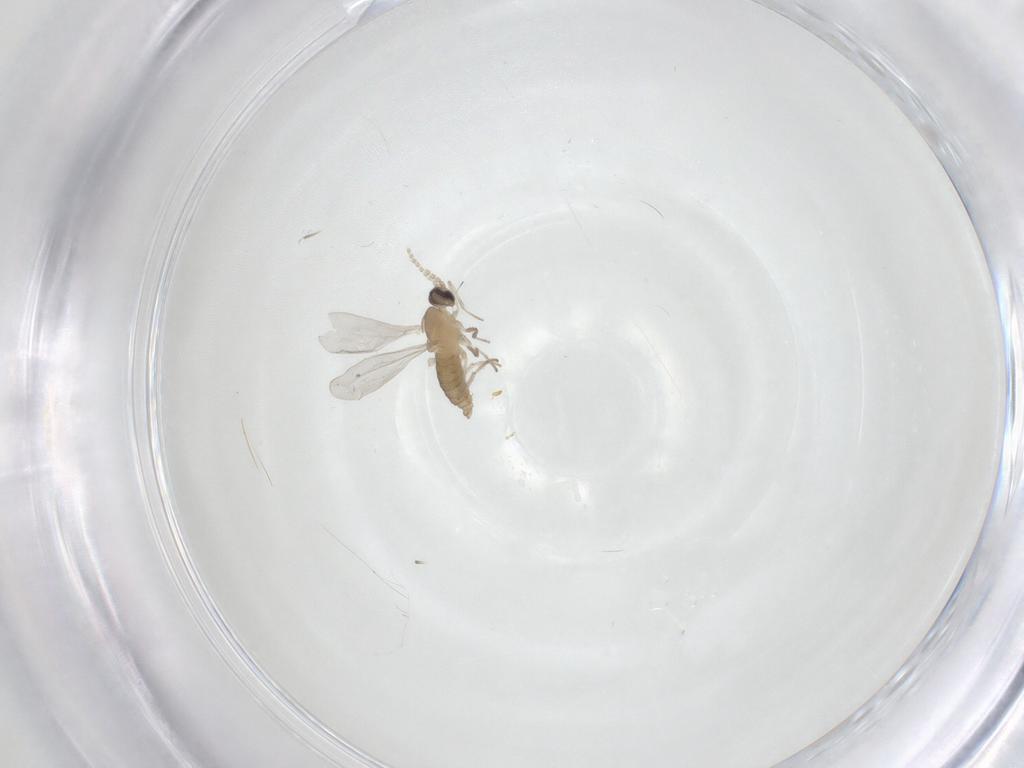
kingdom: Animalia
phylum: Arthropoda
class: Insecta
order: Diptera
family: Cecidomyiidae
